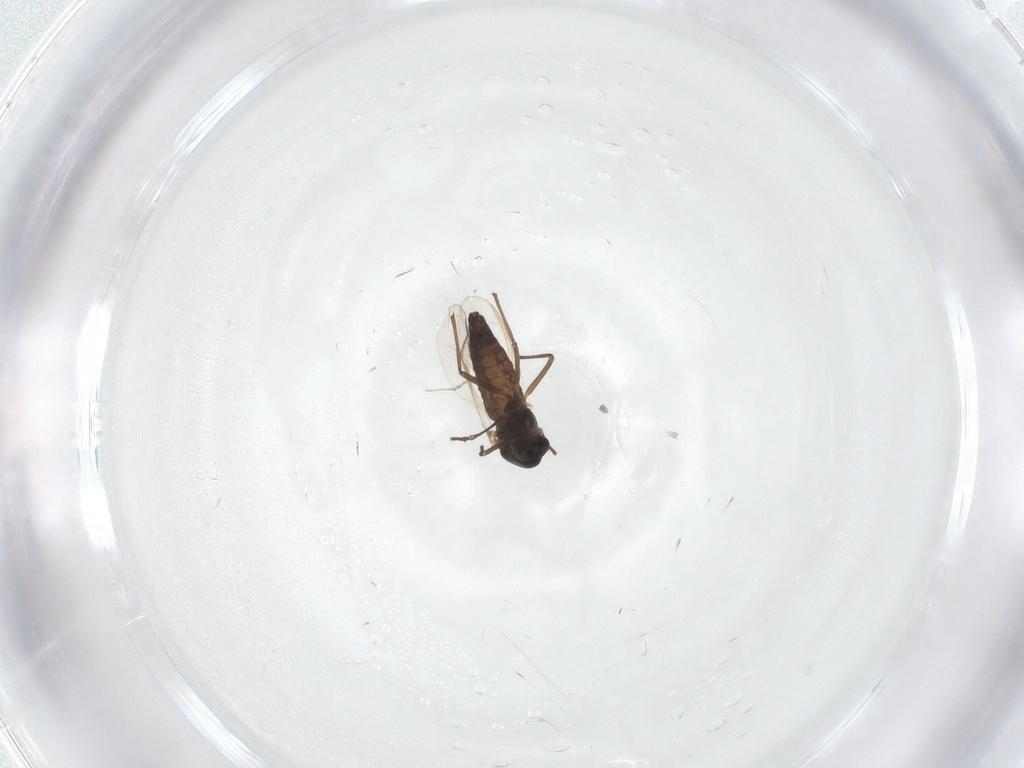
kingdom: Animalia
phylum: Arthropoda
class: Insecta
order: Diptera
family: Chironomidae
